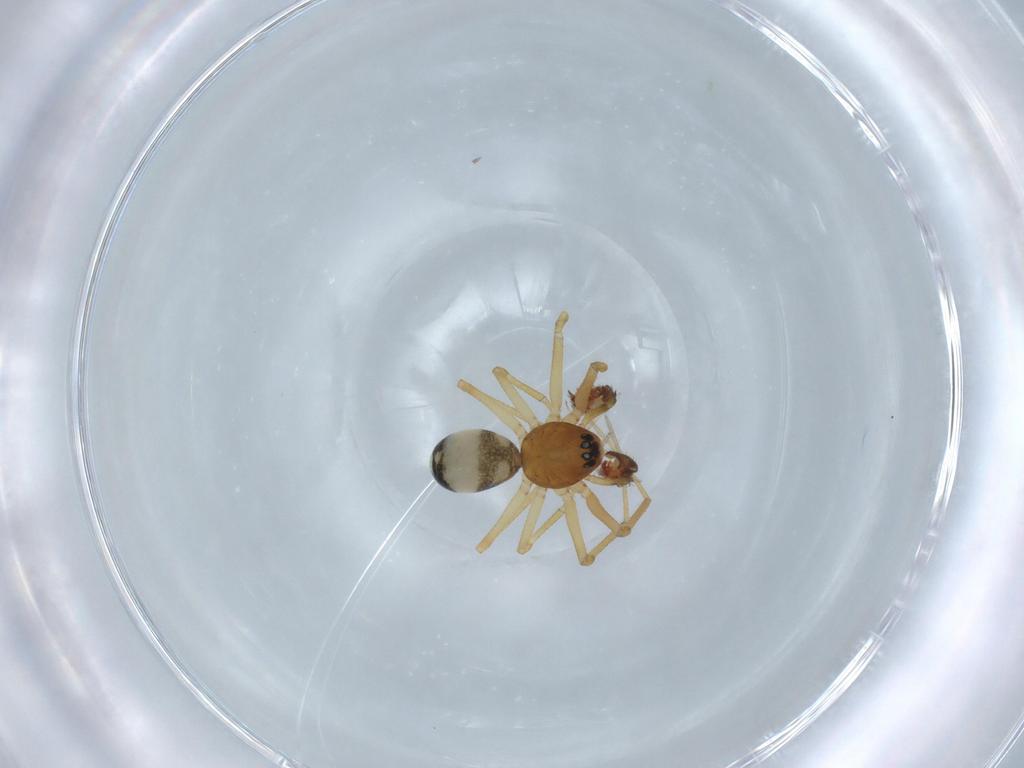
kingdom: Animalia
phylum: Arthropoda
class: Arachnida
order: Araneae
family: Linyphiidae
